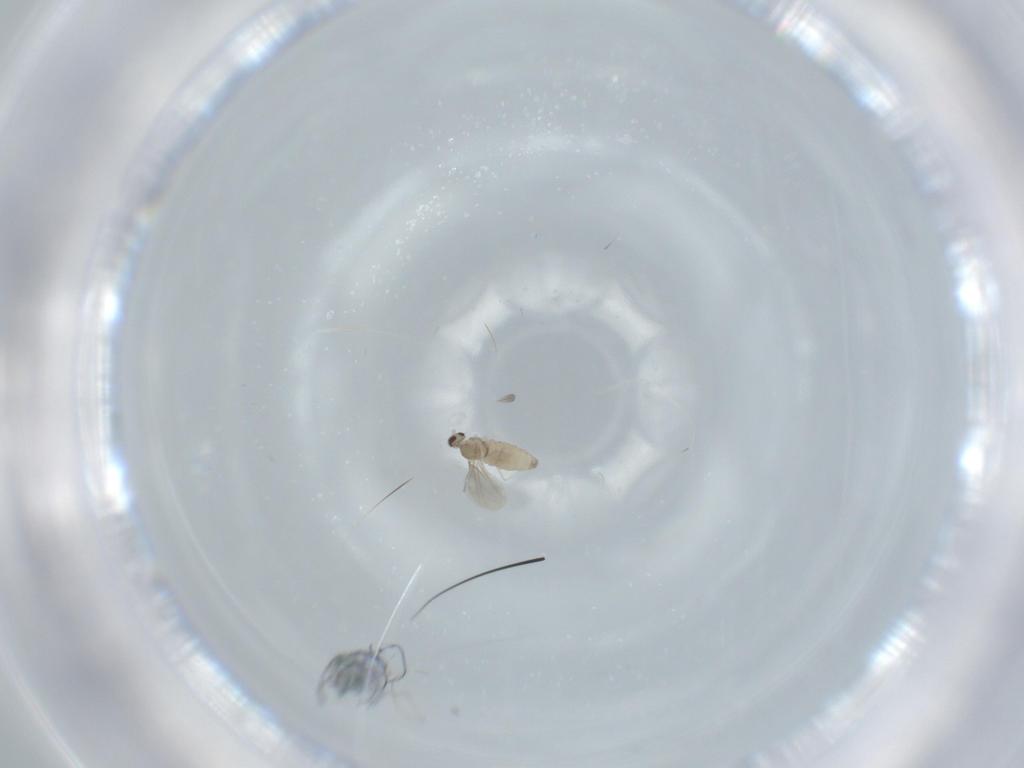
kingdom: Animalia
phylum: Arthropoda
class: Insecta
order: Diptera
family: Cecidomyiidae
